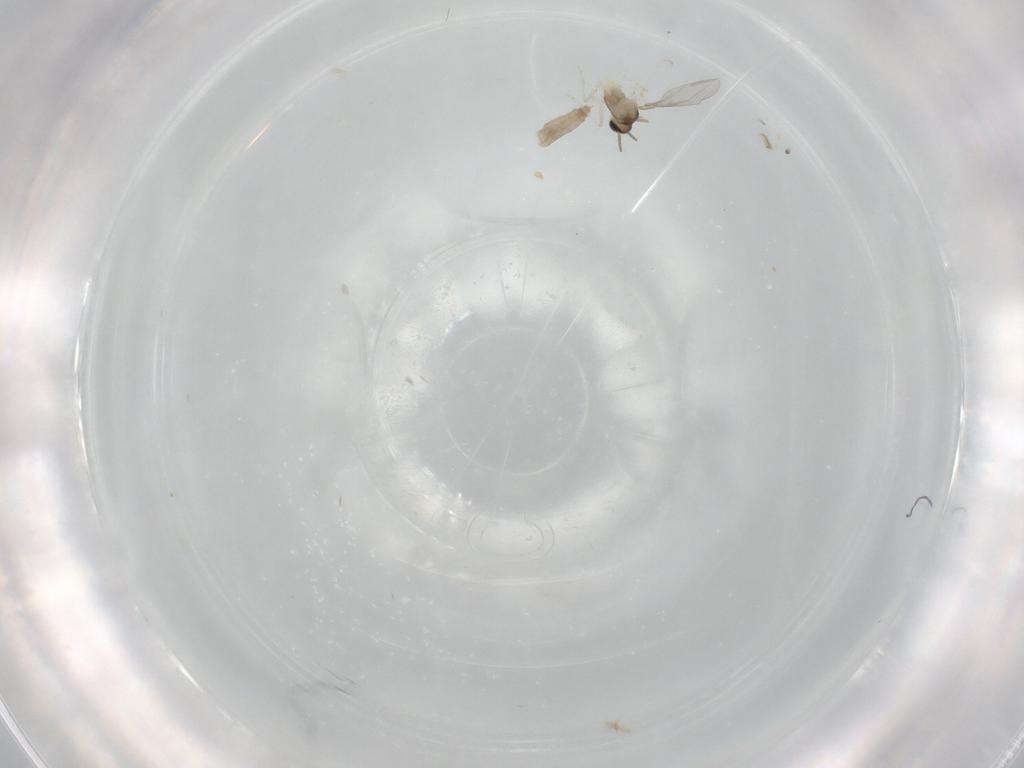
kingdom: Animalia
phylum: Arthropoda
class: Insecta
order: Diptera
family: Cecidomyiidae
